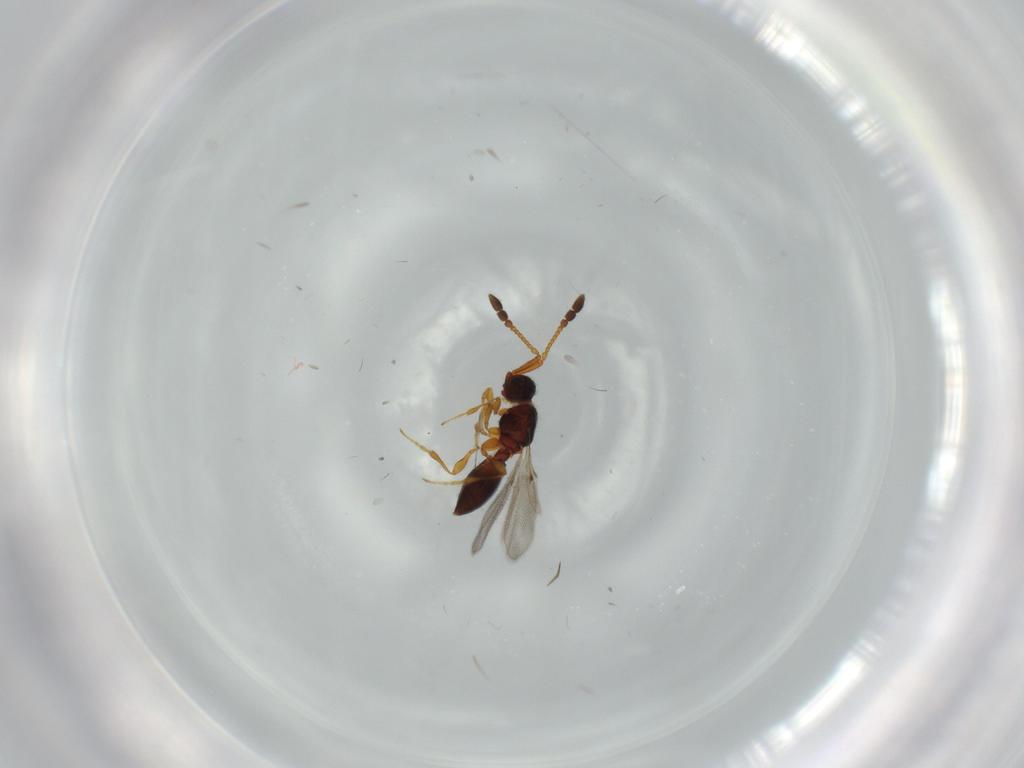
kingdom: Animalia
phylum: Arthropoda
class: Insecta
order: Hymenoptera
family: Diapriidae
